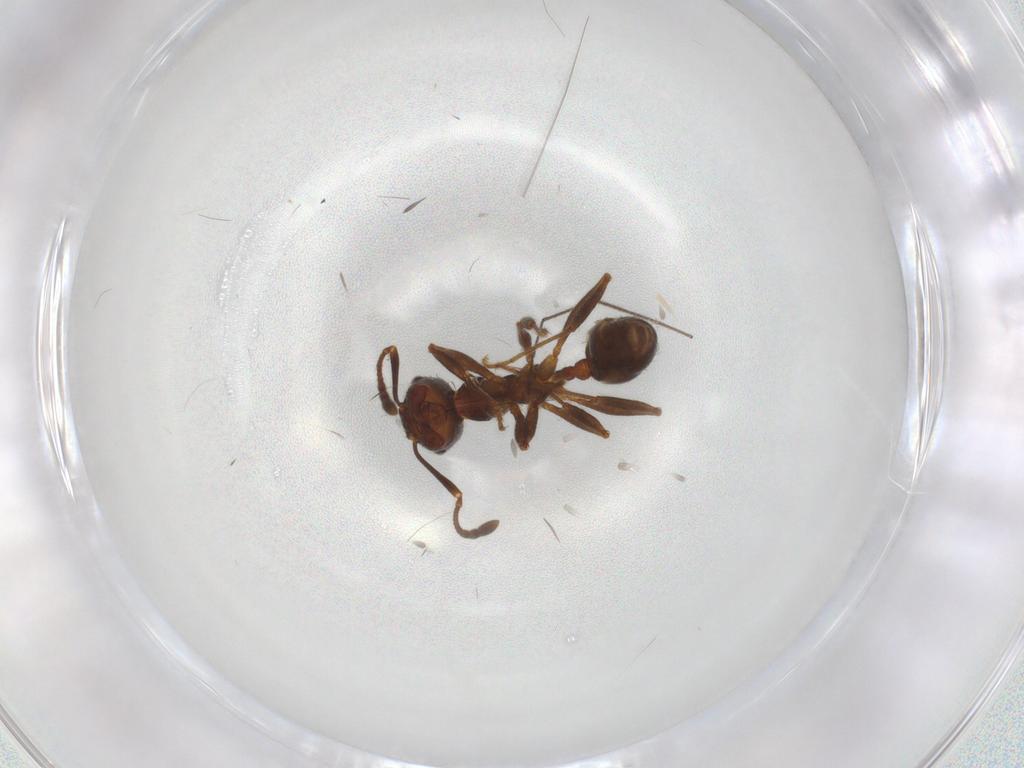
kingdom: Animalia
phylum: Arthropoda
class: Insecta
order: Hymenoptera
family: Formicidae
